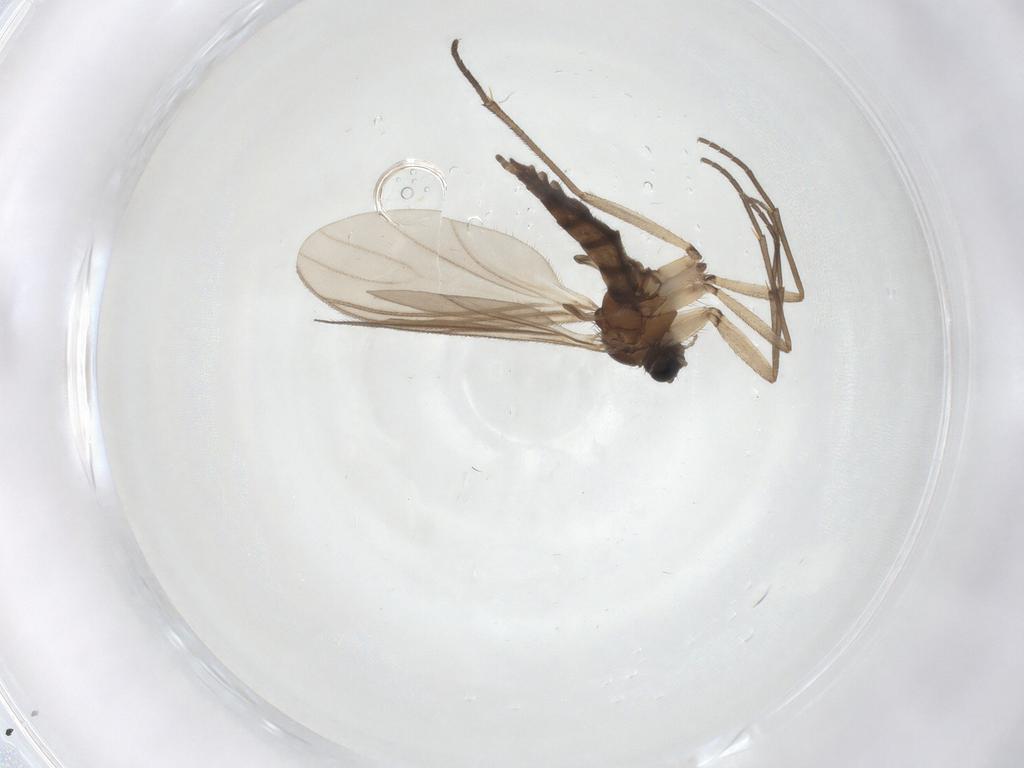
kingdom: Animalia
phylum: Arthropoda
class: Insecta
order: Diptera
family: Sciaridae
